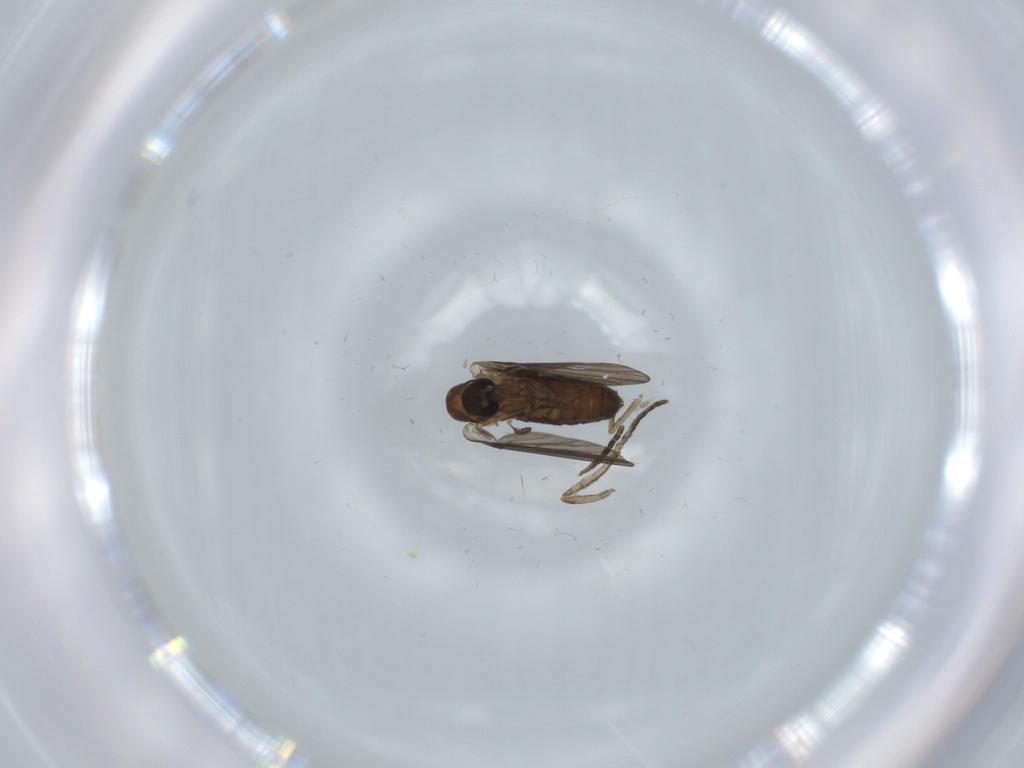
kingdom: Animalia
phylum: Arthropoda
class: Insecta
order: Diptera
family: Psychodidae
